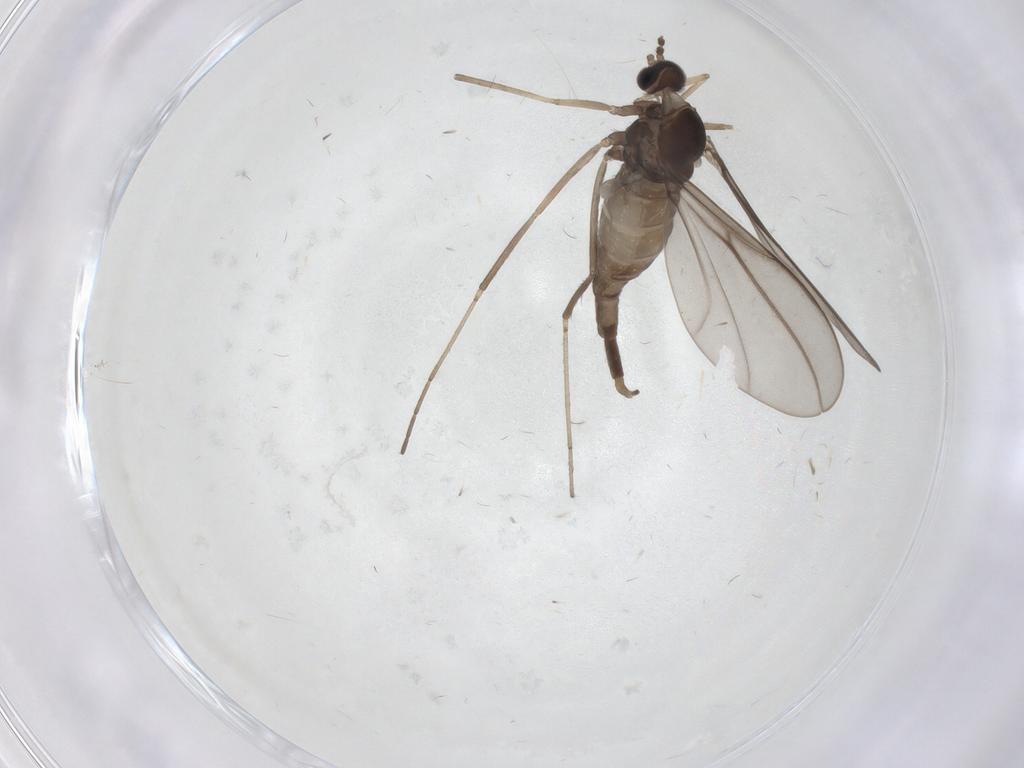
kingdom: Animalia
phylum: Arthropoda
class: Insecta
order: Diptera
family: Cecidomyiidae
